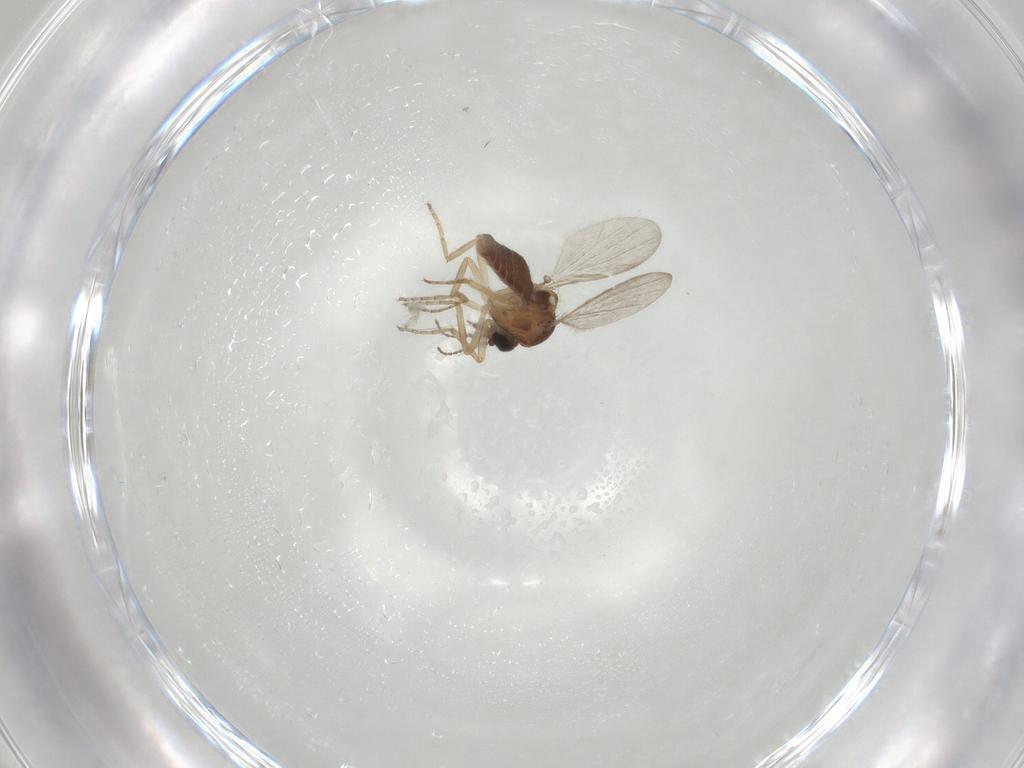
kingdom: Animalia
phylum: Arthropoda
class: Insecta
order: Diptera
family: Ceratopogonidae
